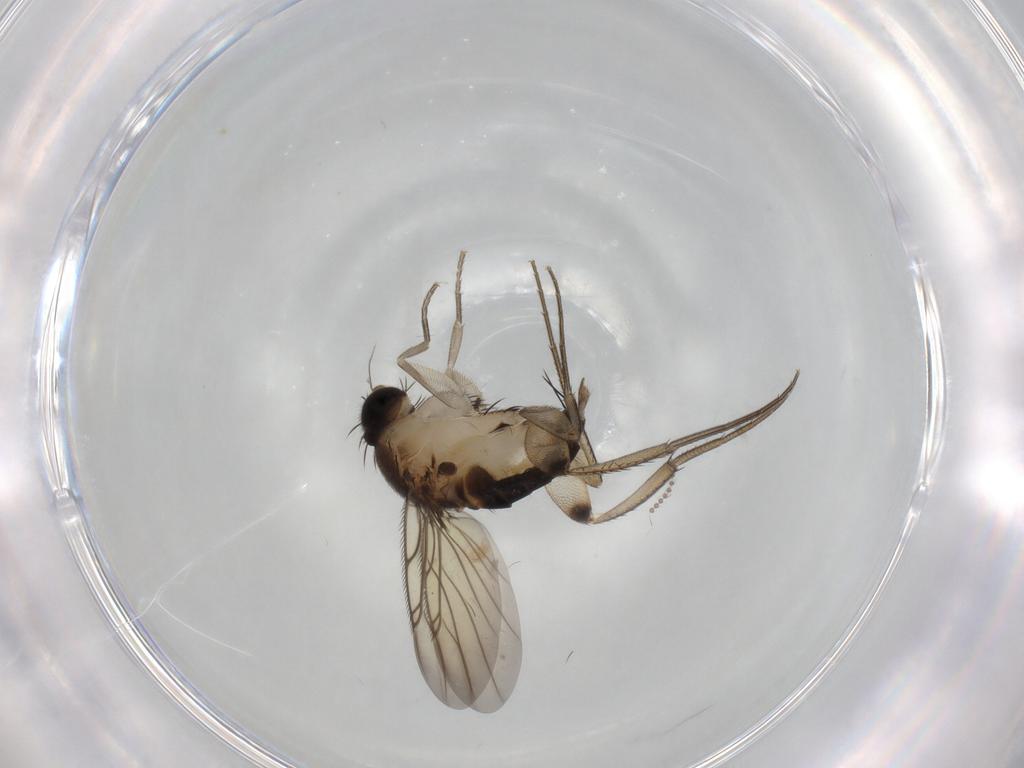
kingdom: Animalia
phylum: Arthropoda
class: Insecta
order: Diptera
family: Phoridae
